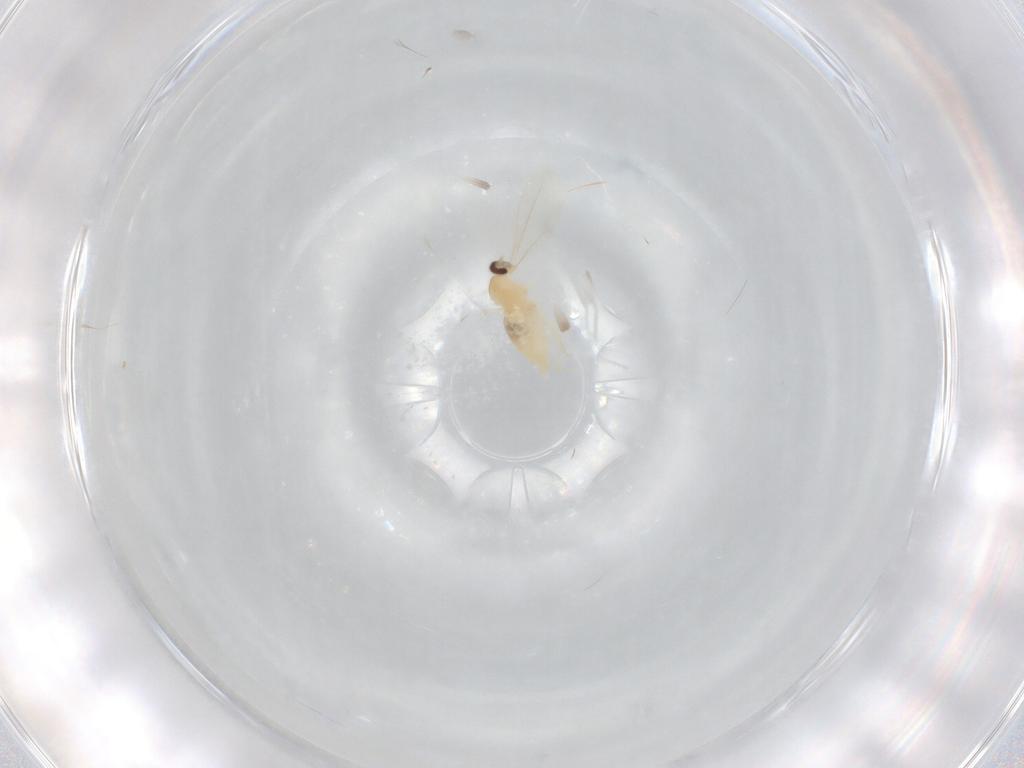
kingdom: Animalia
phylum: Arthropoda
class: Insecta
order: Diptera
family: Cecidomyiidae
